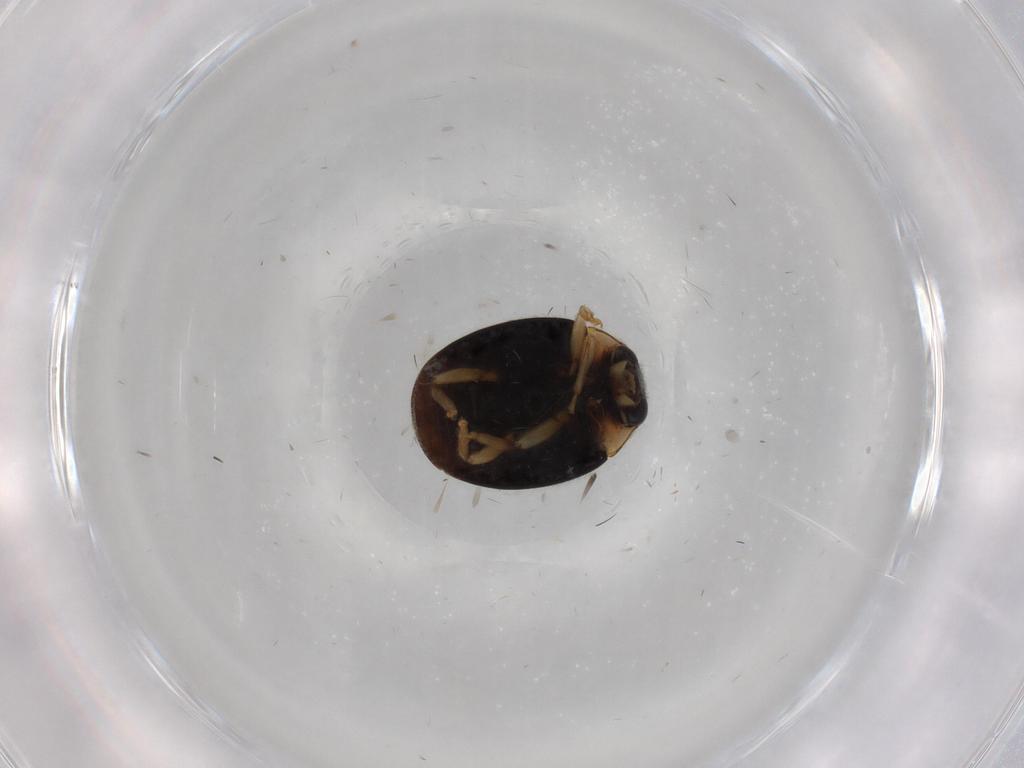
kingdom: Animalia
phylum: Arthropoda
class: Insecta
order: Coleoptera
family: Coccinellidae
